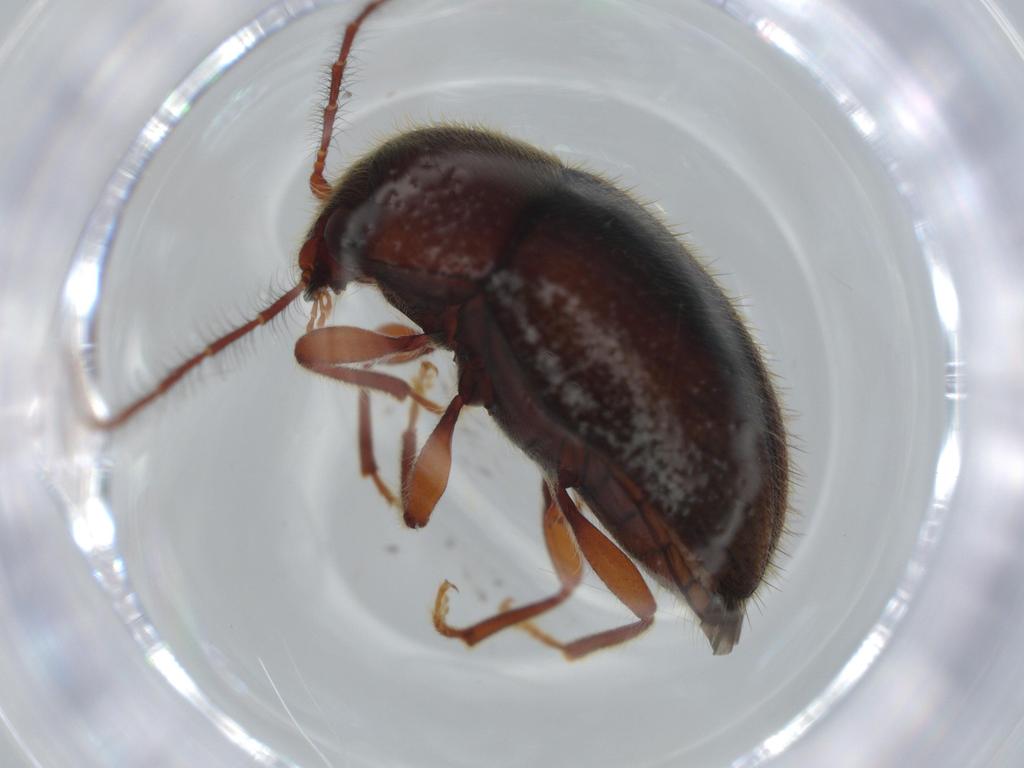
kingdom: Animalia
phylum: Arthropoda
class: Insecta
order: Coleoptera
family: Artematopodidae
